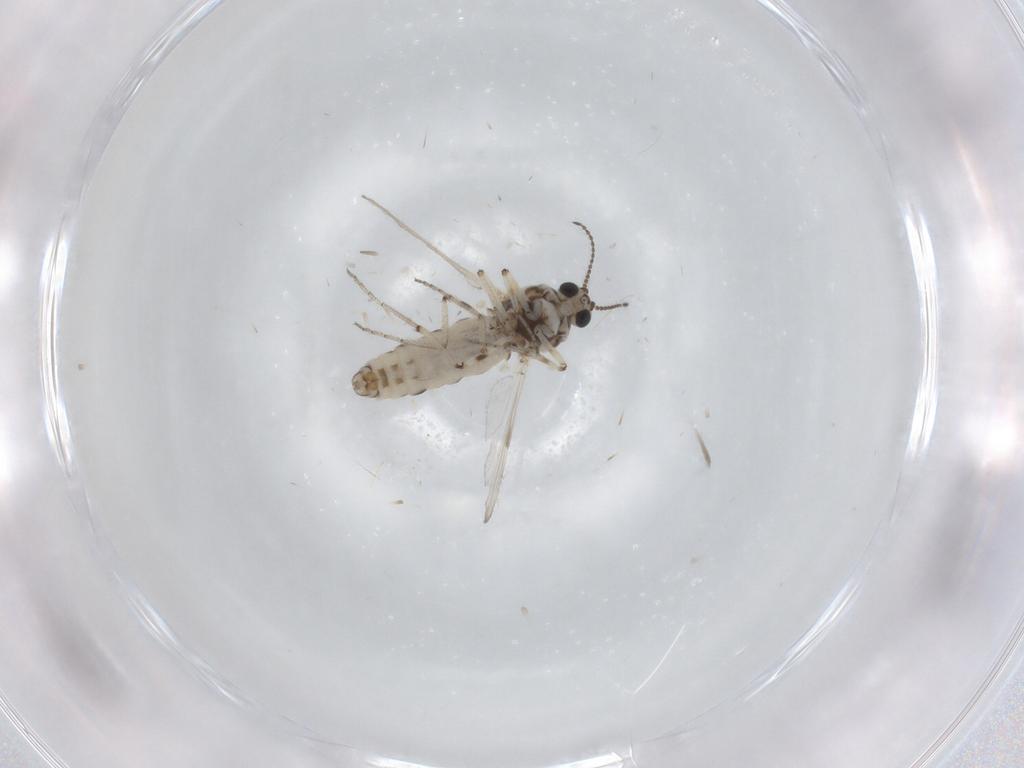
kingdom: Animalia
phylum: Arthropoda
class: Insecta
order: Diptera
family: Ceratopogonidae
